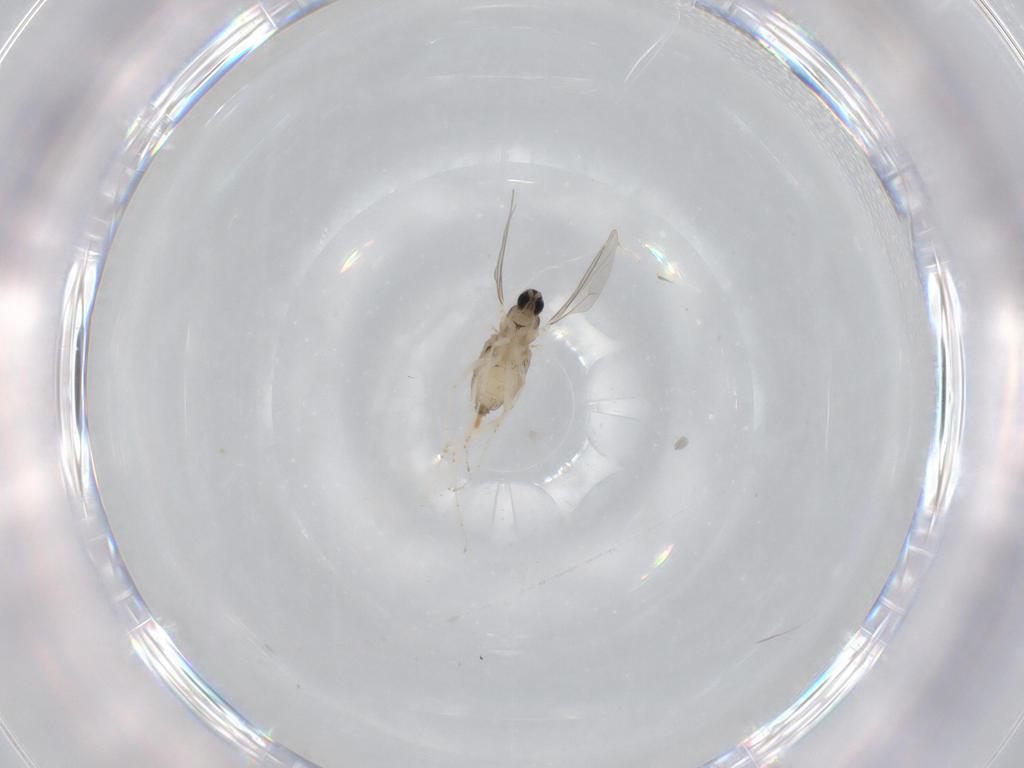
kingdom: Animalia
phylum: Arthropoda
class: Insecta
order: Diptera
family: Cecidomyiidae
